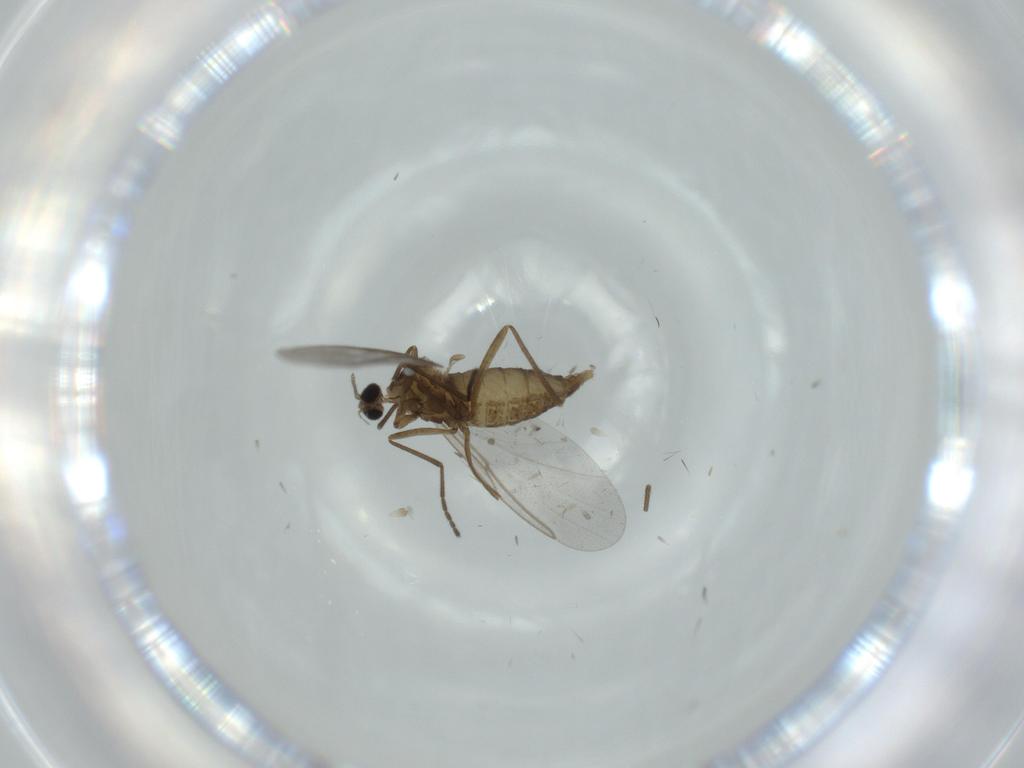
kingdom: Animalia
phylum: Arthropoda
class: Insecta
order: Diptera
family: Cecidomyiidae
